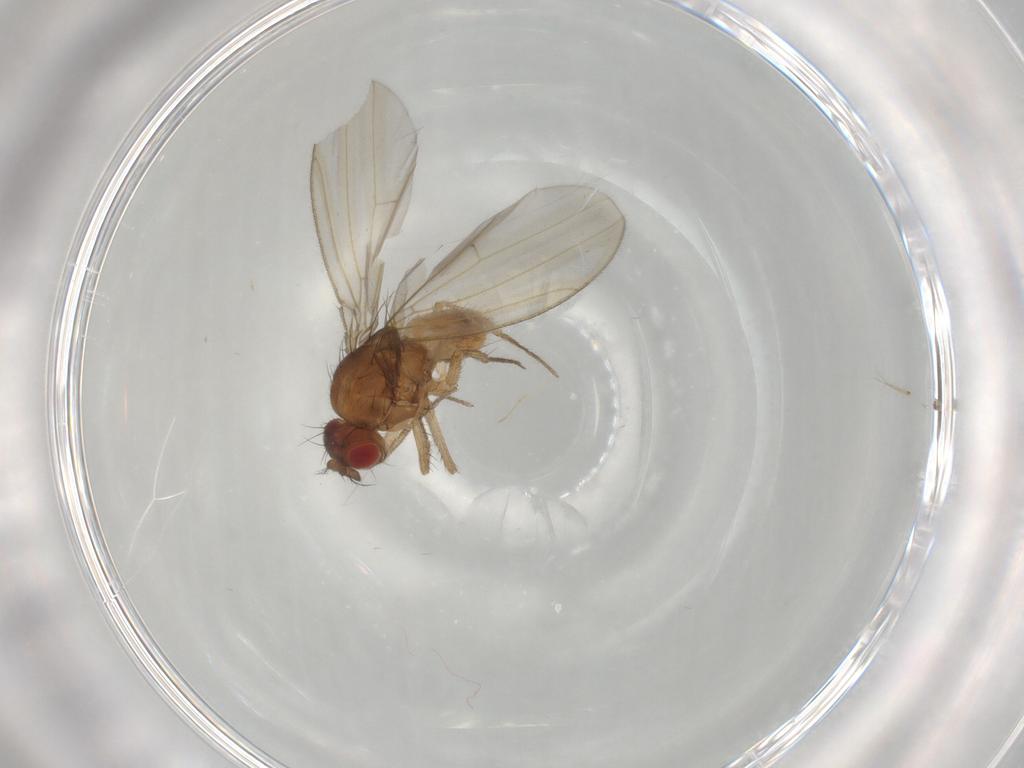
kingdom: Animalia
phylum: Arthropoda
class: Insecta
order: Diptera
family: Drosophilidae
